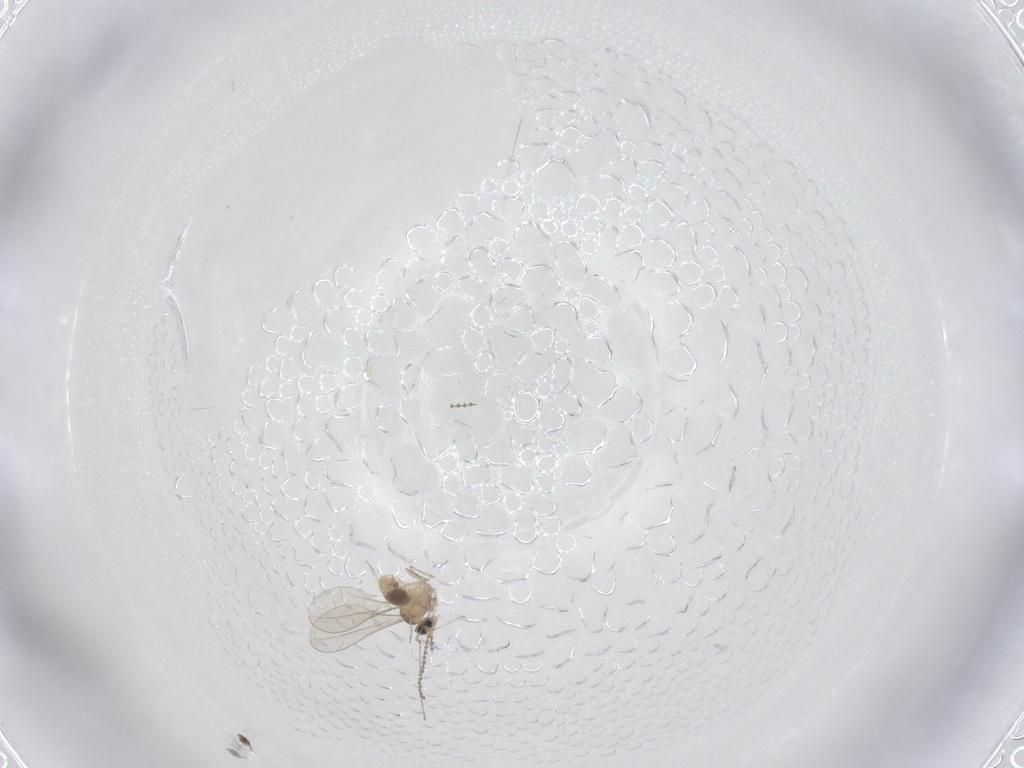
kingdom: Animalia
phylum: Arthropoda
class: Insecta
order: Diptera
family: Cecidomyiidae
